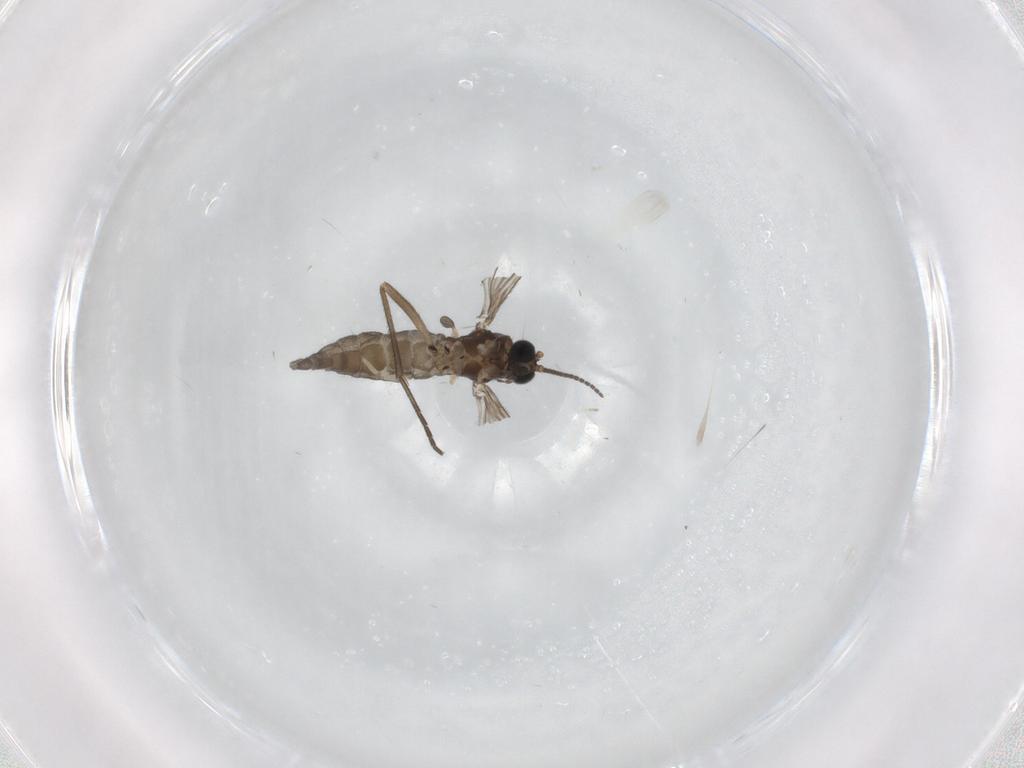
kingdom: Animalia
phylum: Arthropoda
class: Insecta
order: Diptera
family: Sciaridae
